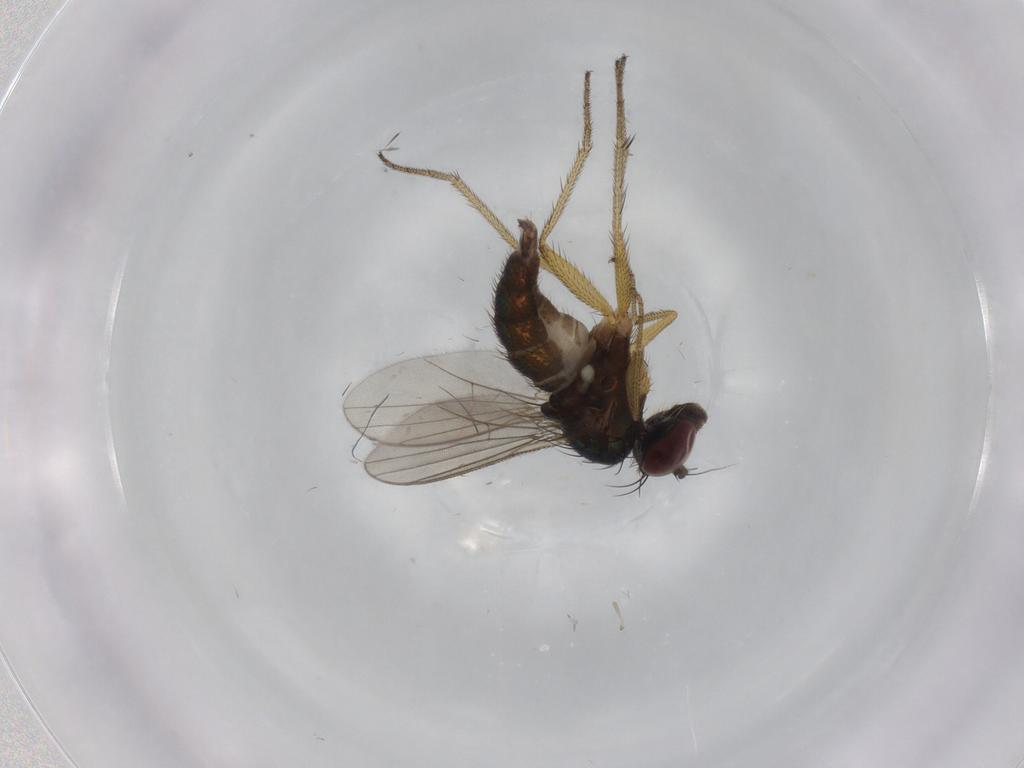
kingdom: Animalia
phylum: Arthropoda
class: Insecta
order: Diptera
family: Dolichopodidae
